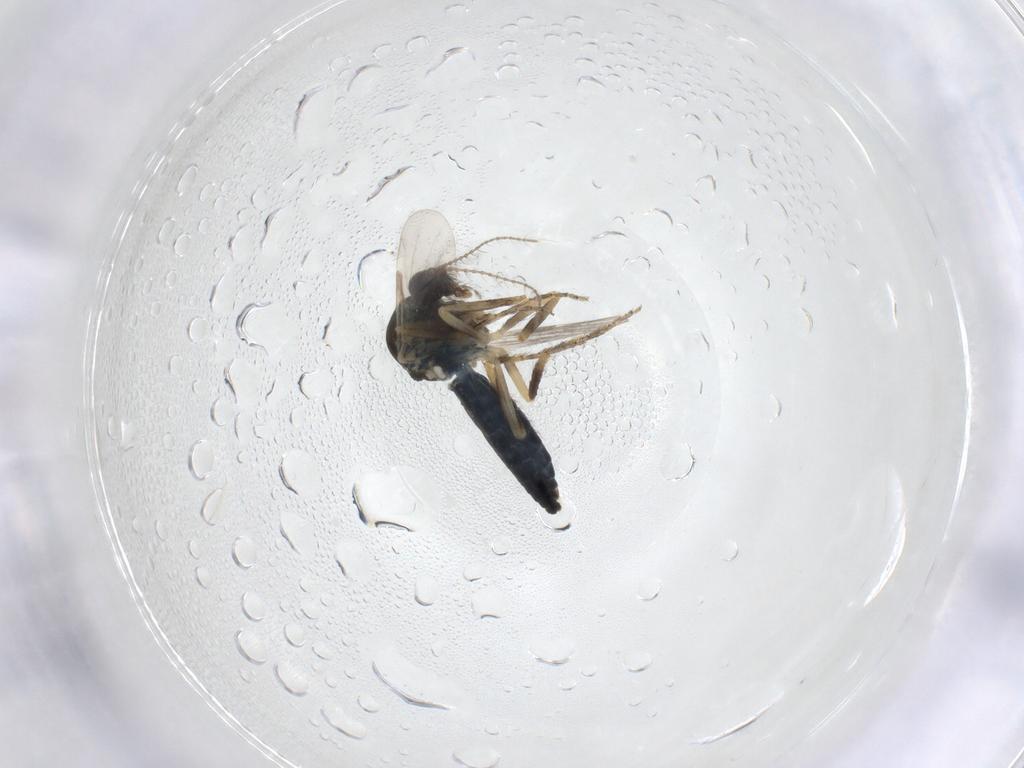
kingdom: Animalia
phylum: Arthropoda
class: Insecta
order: Diptera
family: Ceratopogonidae
